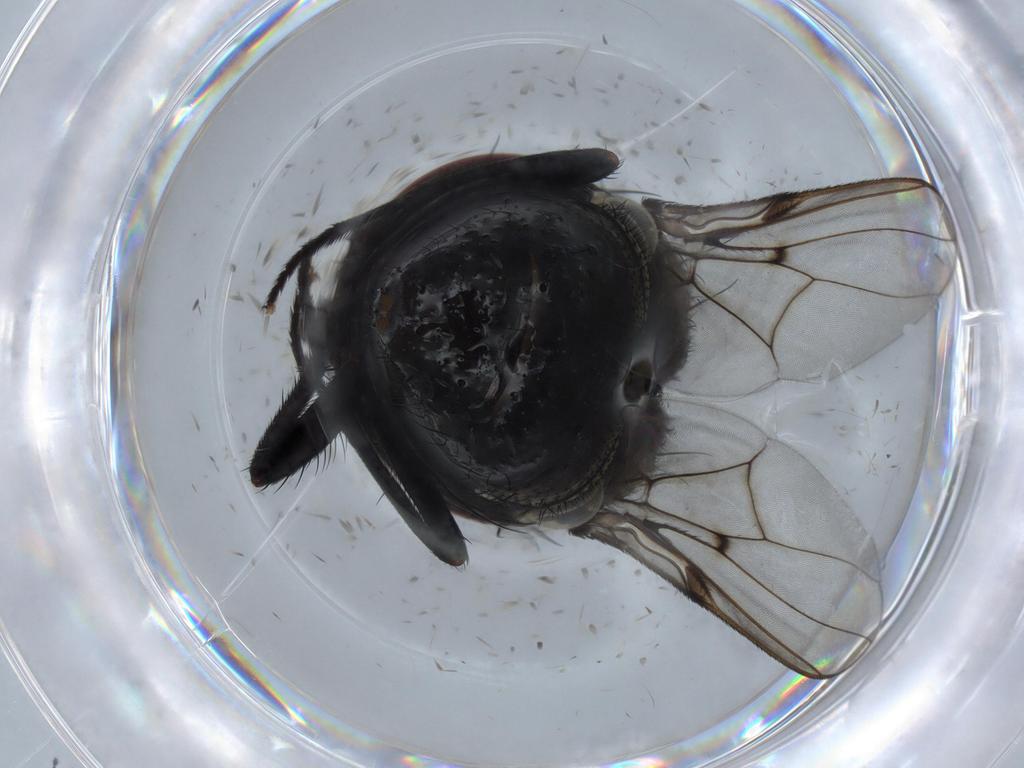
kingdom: Animalia
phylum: Arthropoda
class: Insecta
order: Diptera
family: Muscidae
